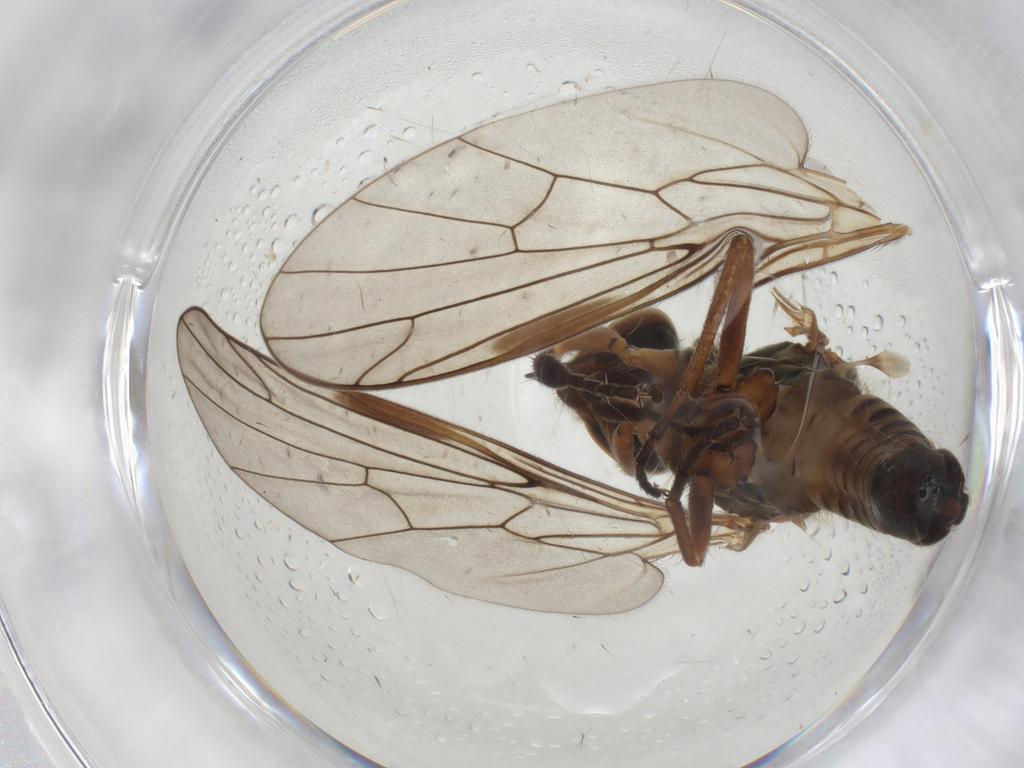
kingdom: Animalia
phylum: Arthropoda
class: Insecta
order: Diptera
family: Empididae
